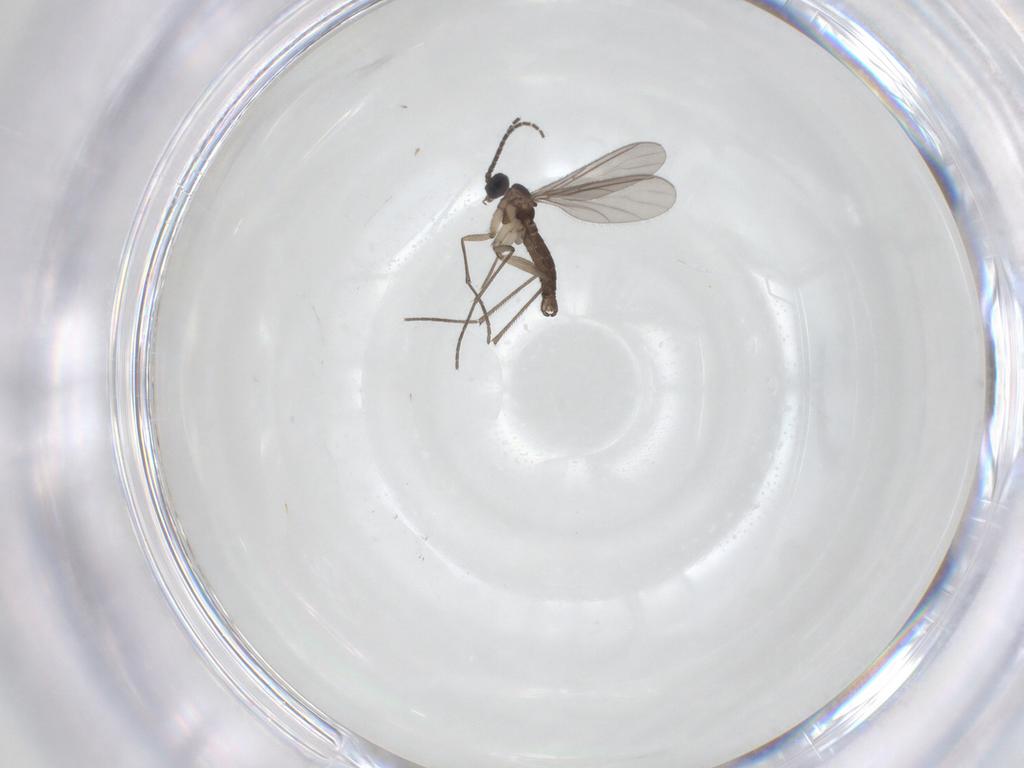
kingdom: Animalia
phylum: Arthropoda
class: Insecta
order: Diptera
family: Sciaridae
